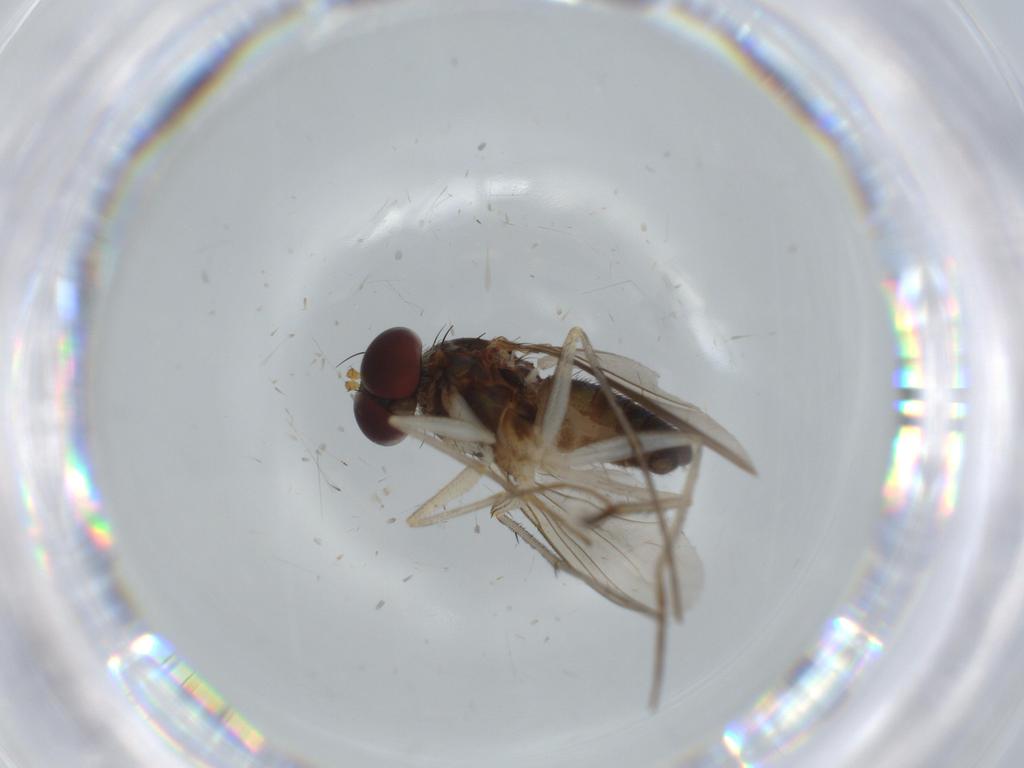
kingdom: Animalia
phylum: Arthropoda
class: Insecta
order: Diptera
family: Dolichopodidae
